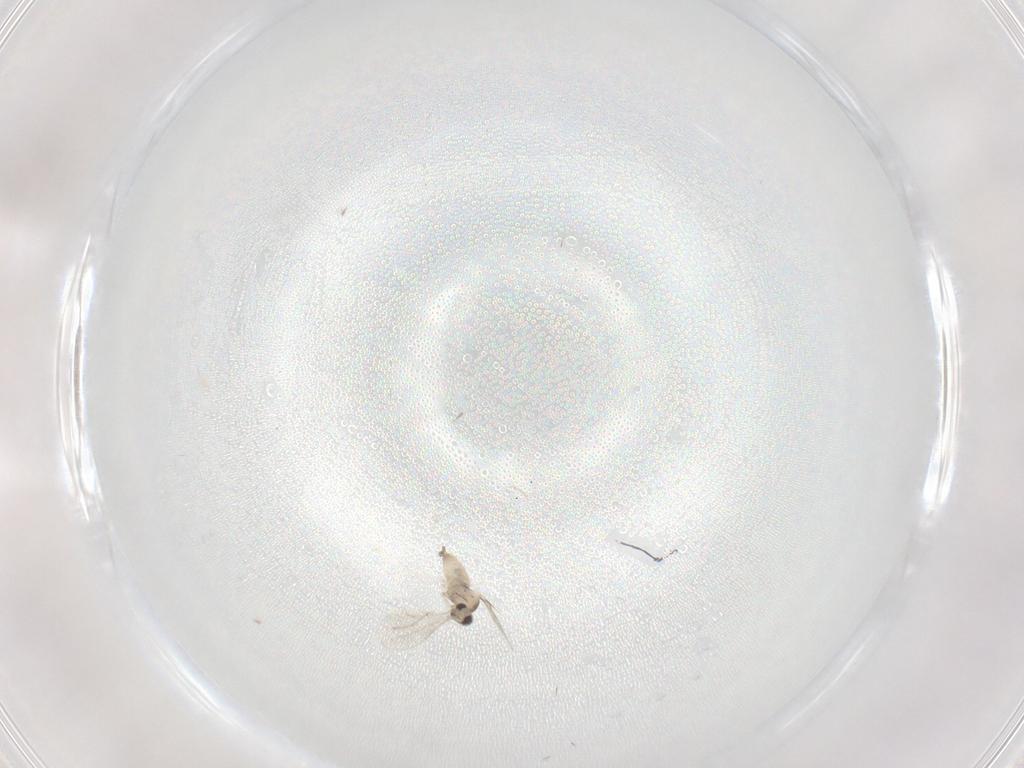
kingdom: Animalia
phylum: Arthropoda
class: Insecta
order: Diptera
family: Cecidomyiidae
